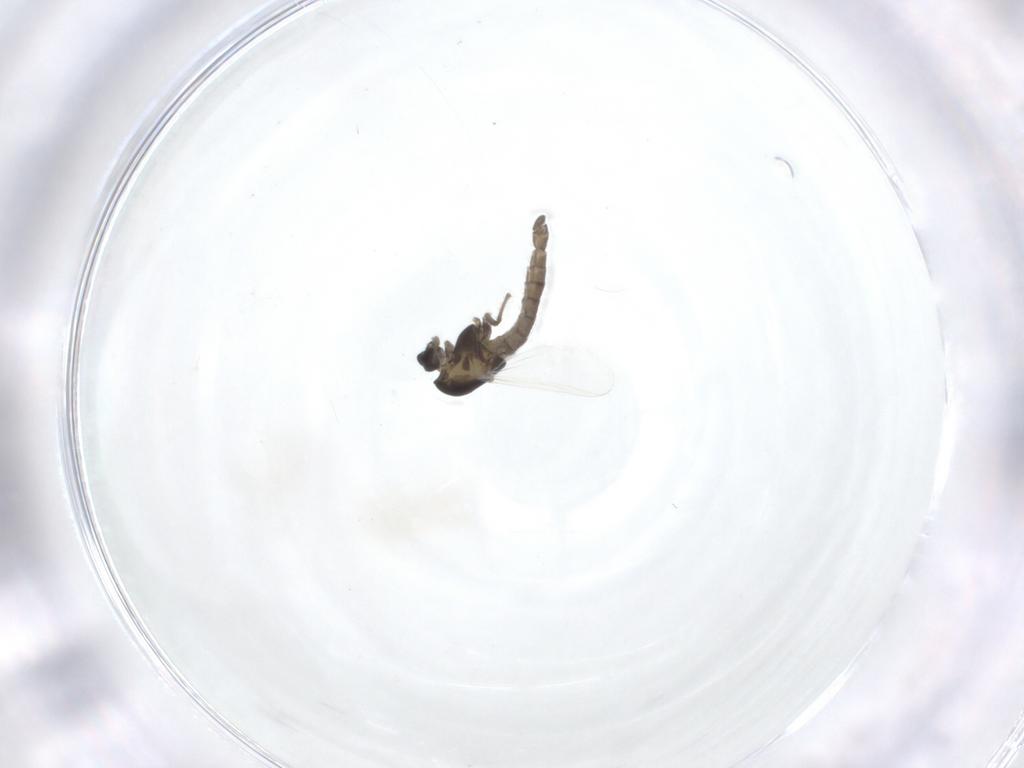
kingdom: Animalia
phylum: Arthropoda
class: Insecta
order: Diptera
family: Chironomidae
